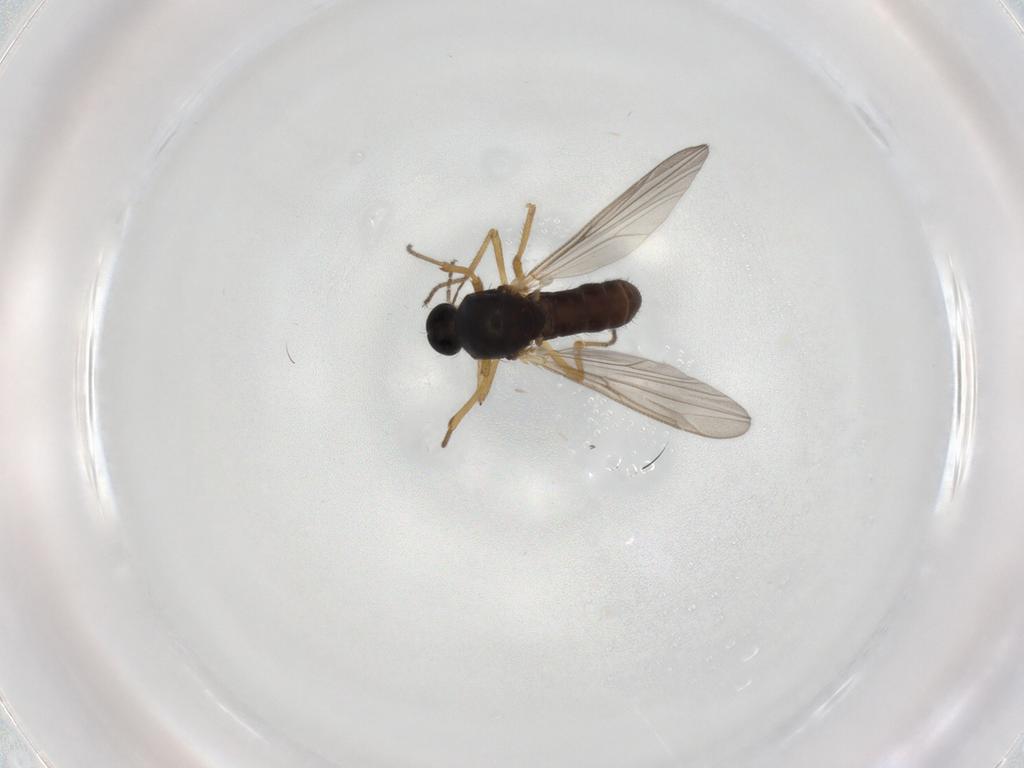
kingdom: Animalia
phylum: Arthropoda
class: Insecta
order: Diptera
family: Ceratopogonidae
